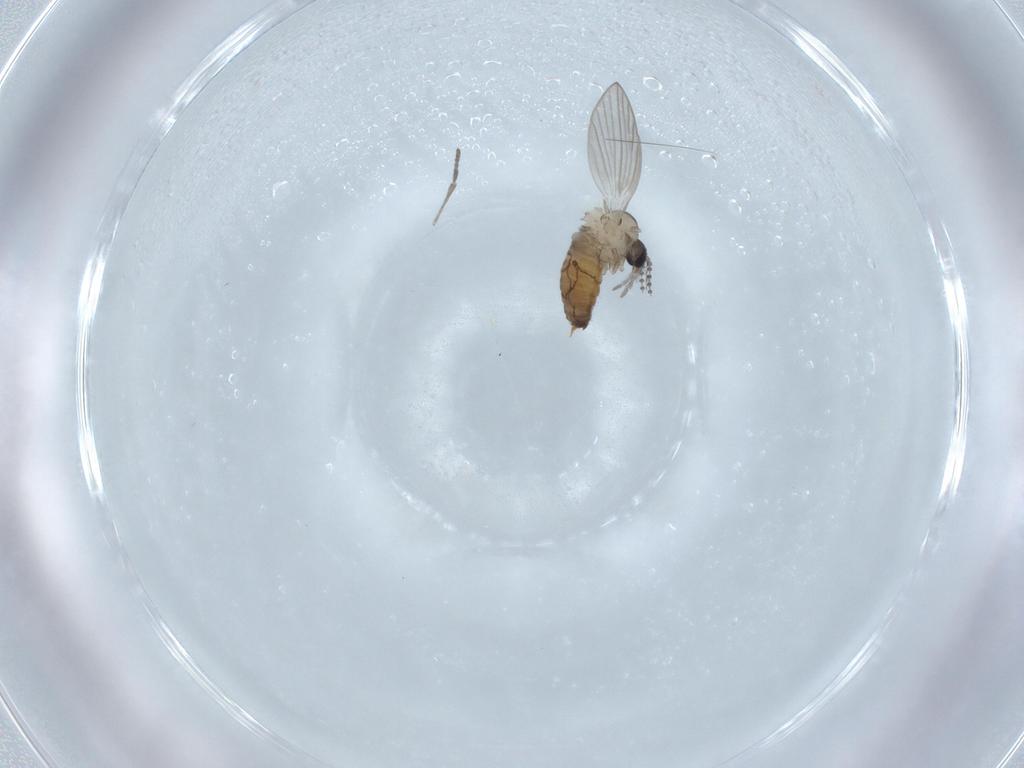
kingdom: Animalia
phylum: Arthropoda
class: Insecta
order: Diptera
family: Psychodidae
